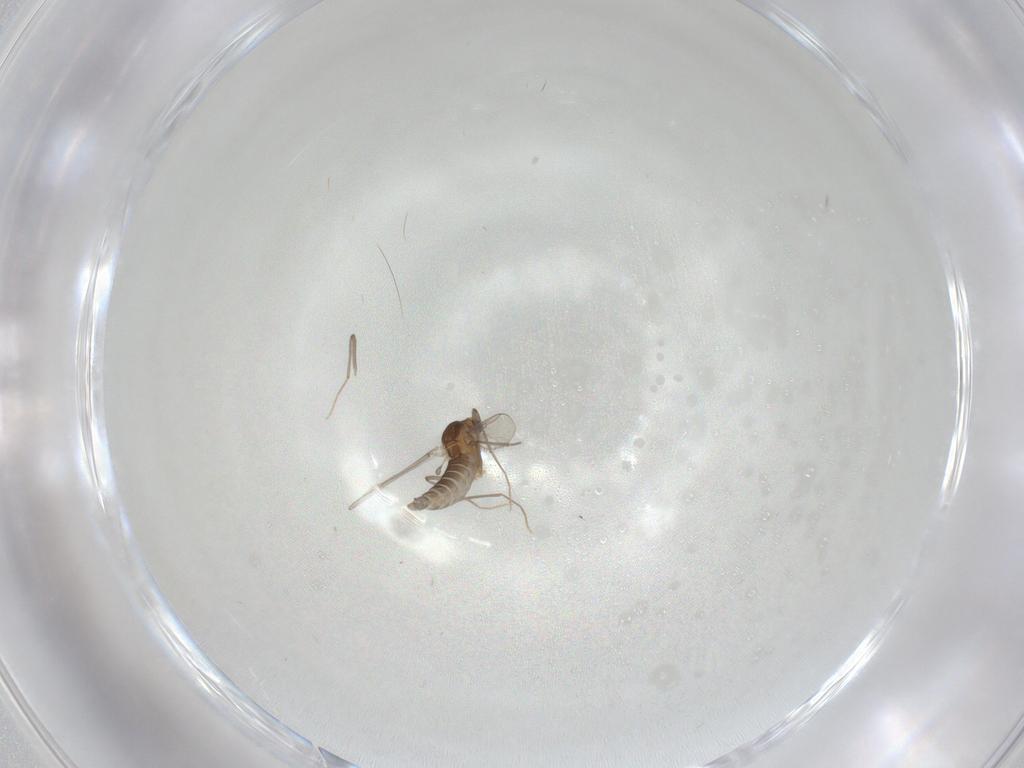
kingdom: Animalia
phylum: Arthropoda
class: Insecta
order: Diptera
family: Chironomidae
